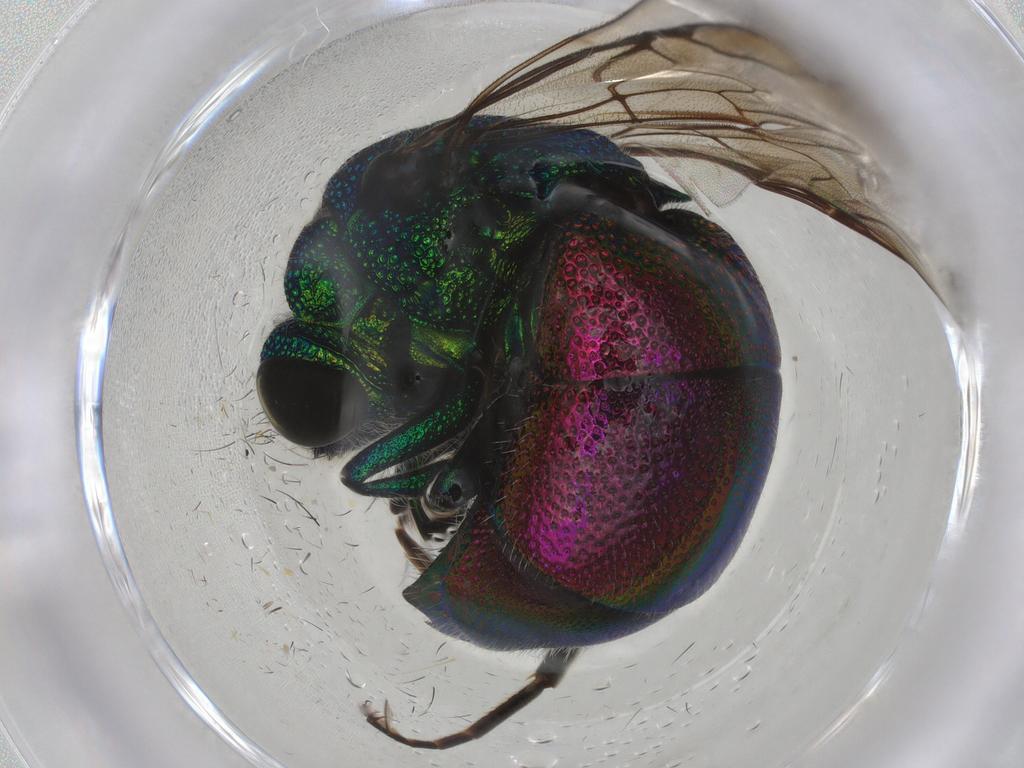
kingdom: Animalia
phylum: Arthropoda
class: Insecta
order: Hymenoptera
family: Chrysididae
